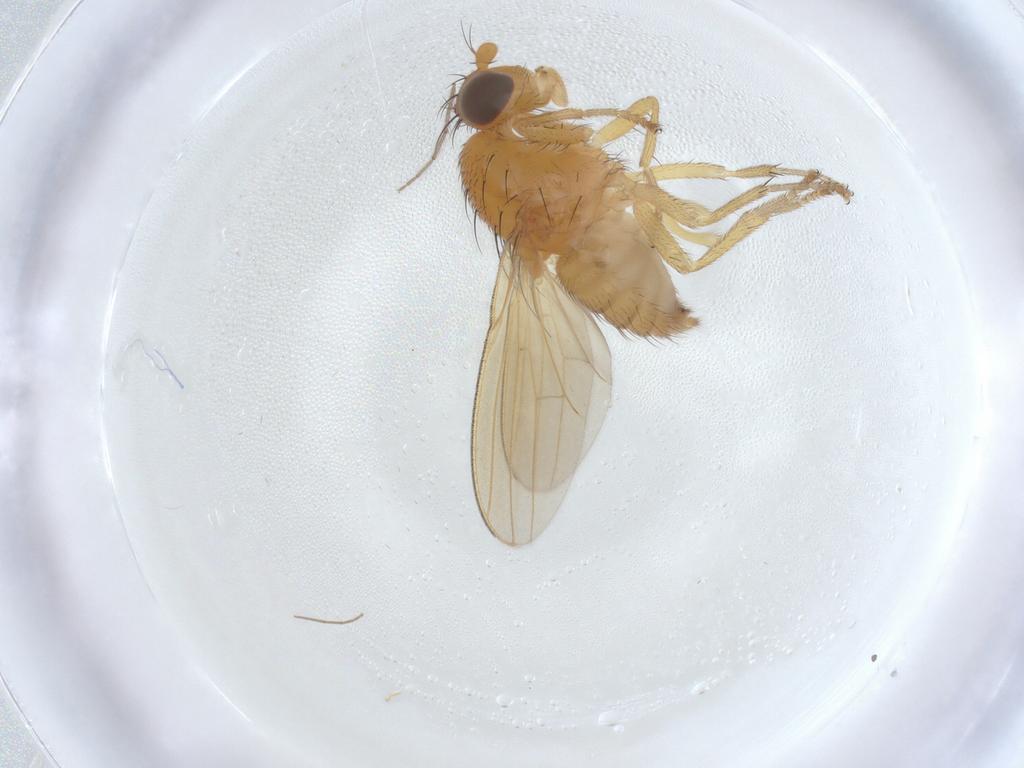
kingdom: Animalia
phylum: Arthropoda
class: Insecta
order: Diptera
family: Lauxaniidae
